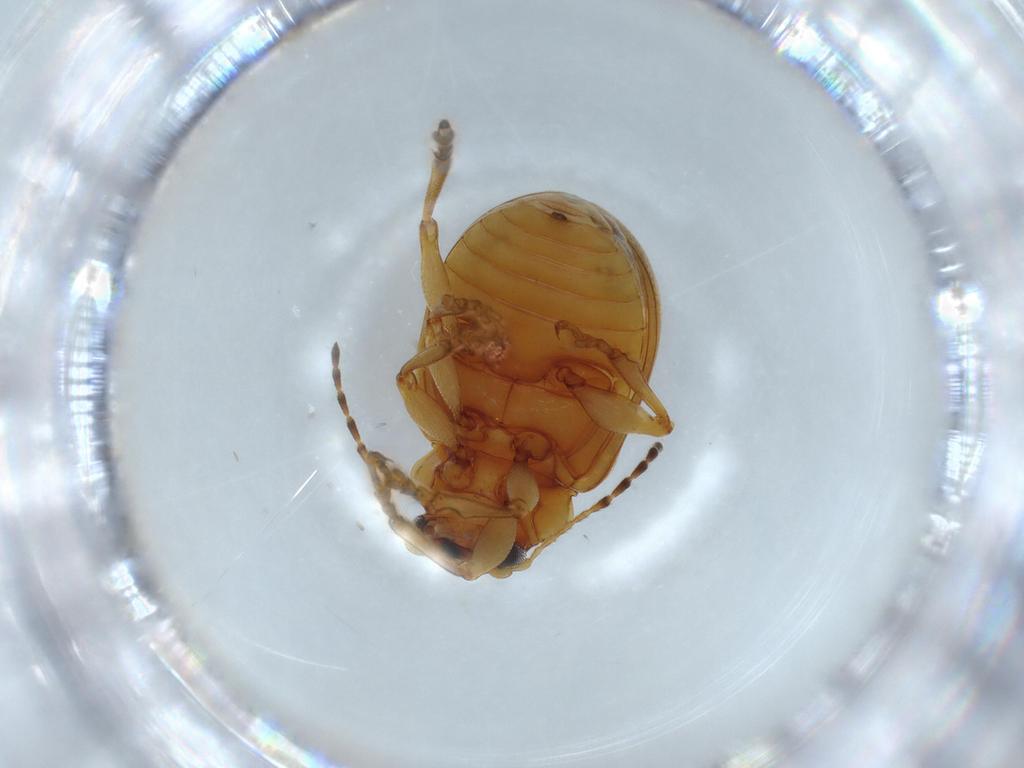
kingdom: Animalia
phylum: Arthropoda
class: Insecta
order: Coleoptera
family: Chrysomelidae
